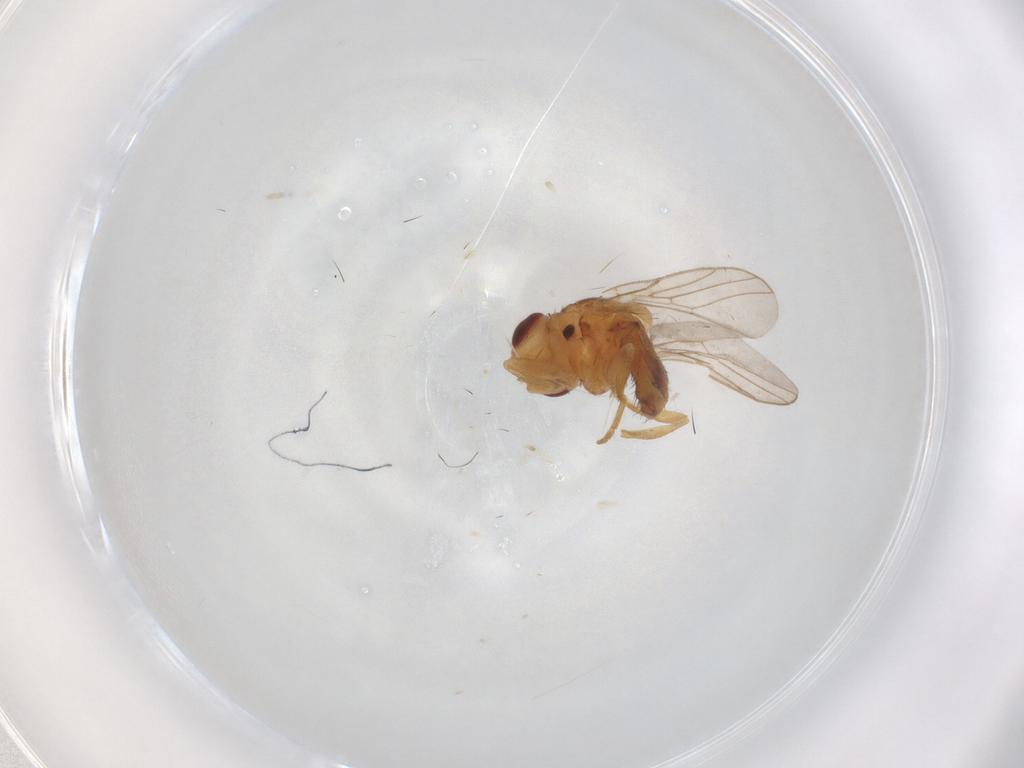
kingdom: Animalia
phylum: Arthropoda
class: Insecta
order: Diptera
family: Chloropidae
